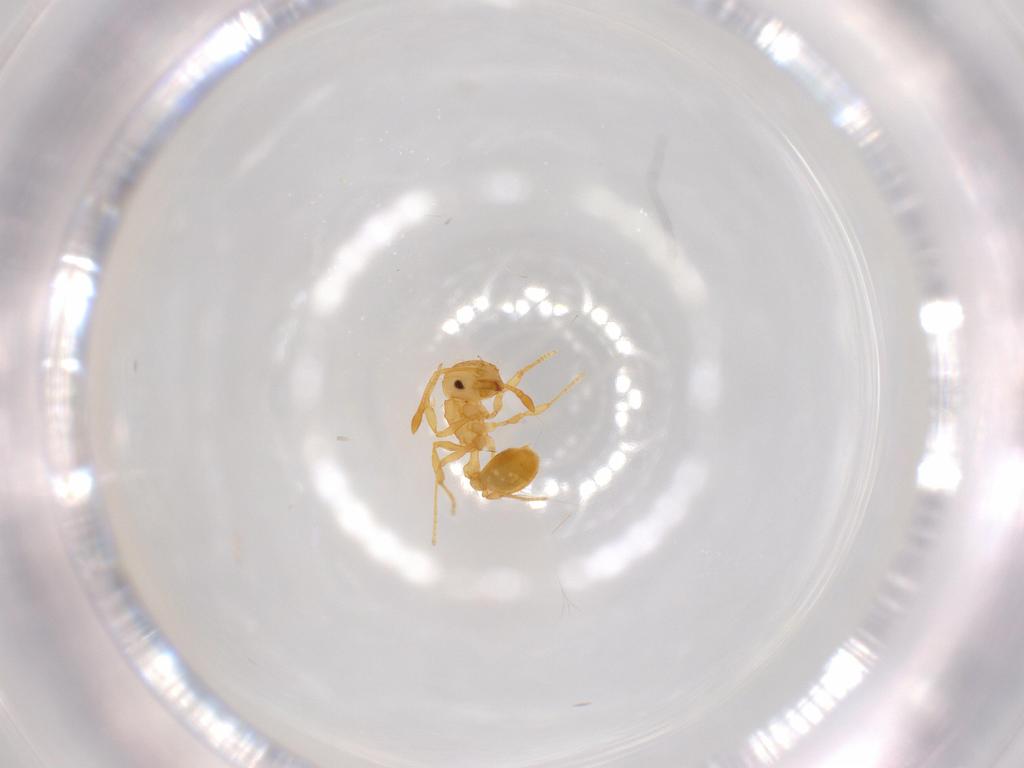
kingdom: Animalia
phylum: Arthropoda
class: Insecta
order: Hymenoptera
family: Formicidae
